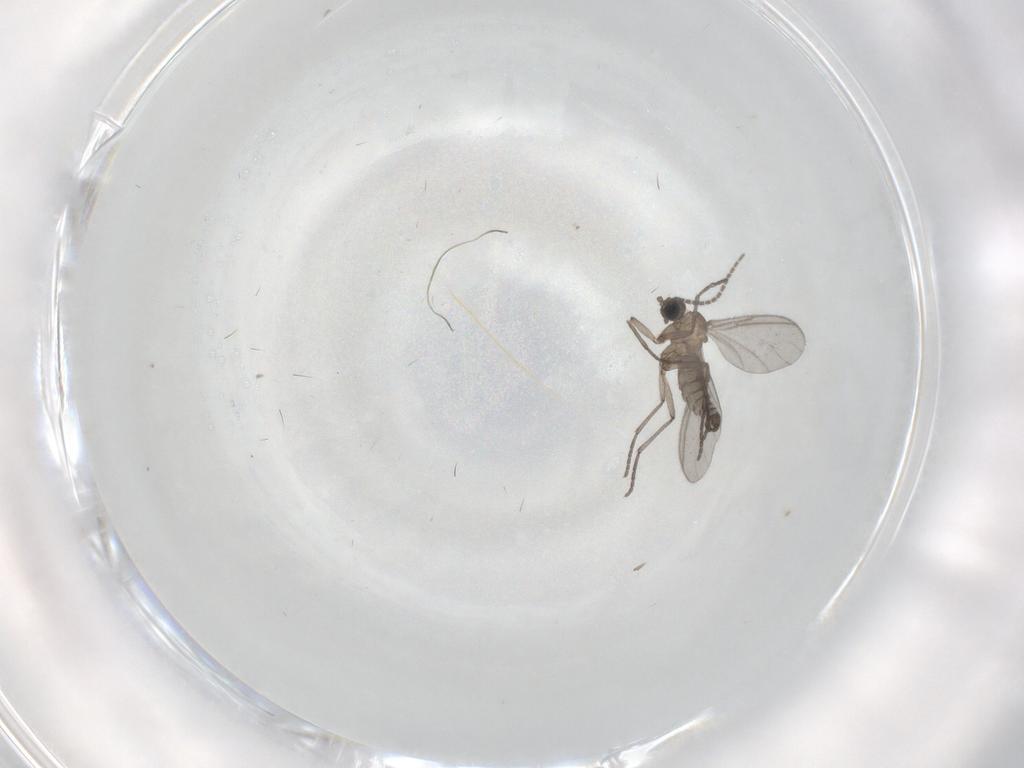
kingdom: Animalia
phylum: Arthropoda
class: Insecta
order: Diptera
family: Sciaridae
